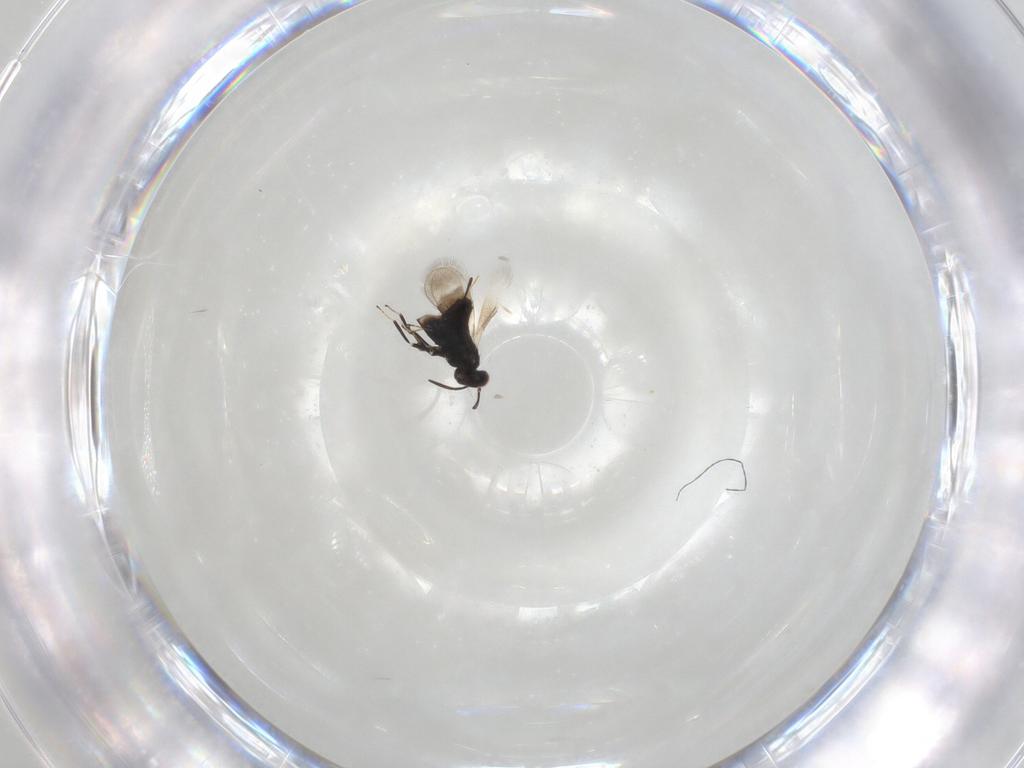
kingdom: Animalia
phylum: Arthropoda
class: Insecta
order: Hymenoptera
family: Azotidae
